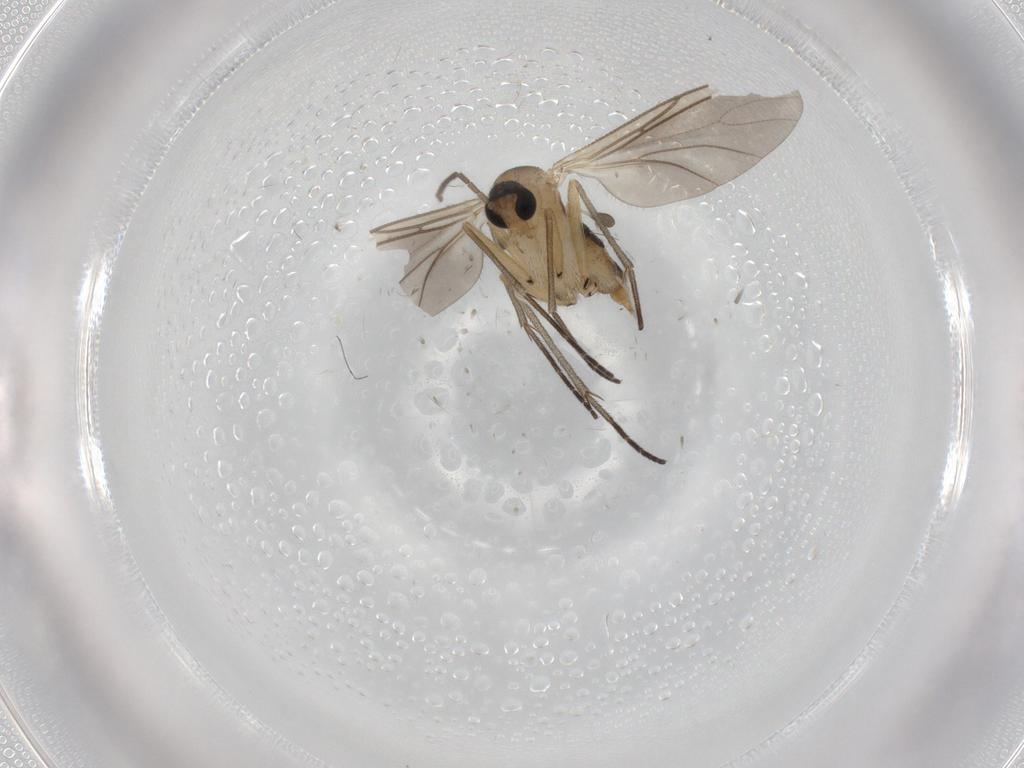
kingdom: Animalia
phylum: Arthropoda
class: Insecta
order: Diptera
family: Sciaridae
